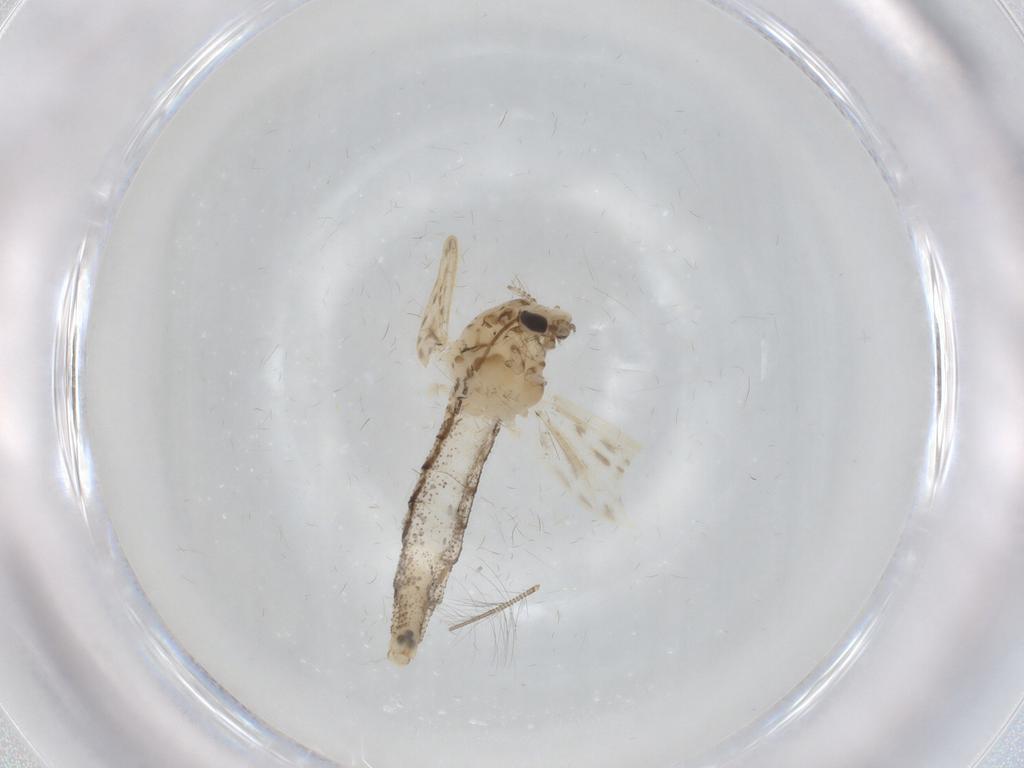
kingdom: Animalia
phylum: Arthropoda
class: Insecta
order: Diptera
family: Chaoboridae
